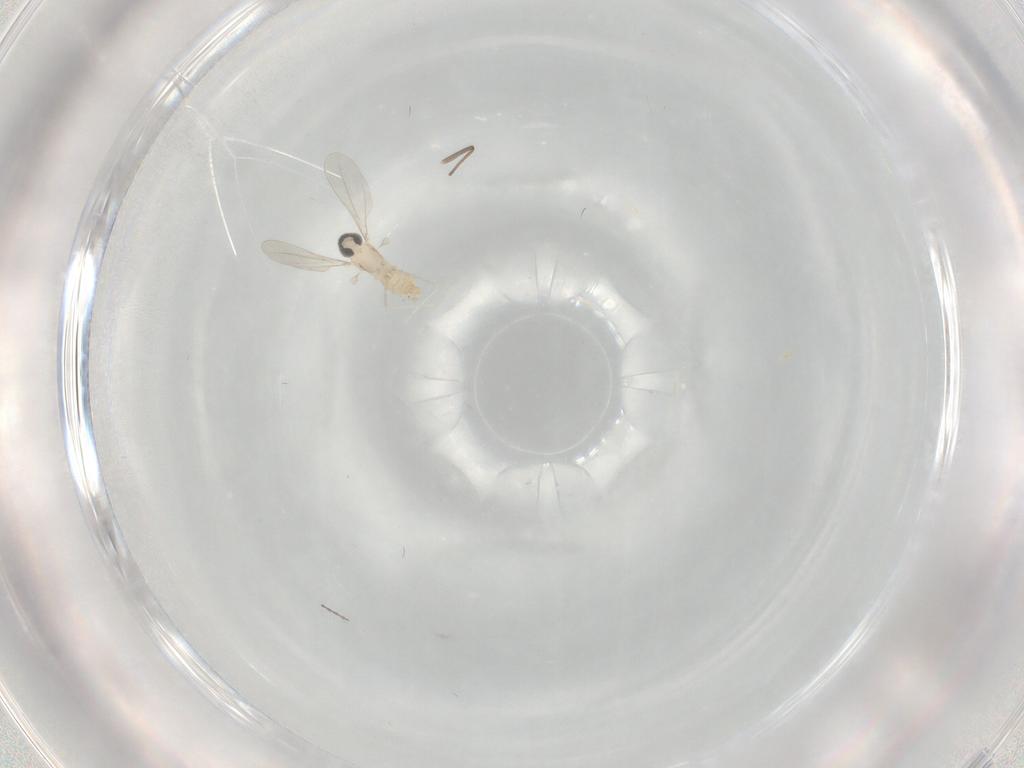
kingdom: Animalia
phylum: Arthropoda
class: Insecta
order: Diptera
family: Cecidomyiidae
